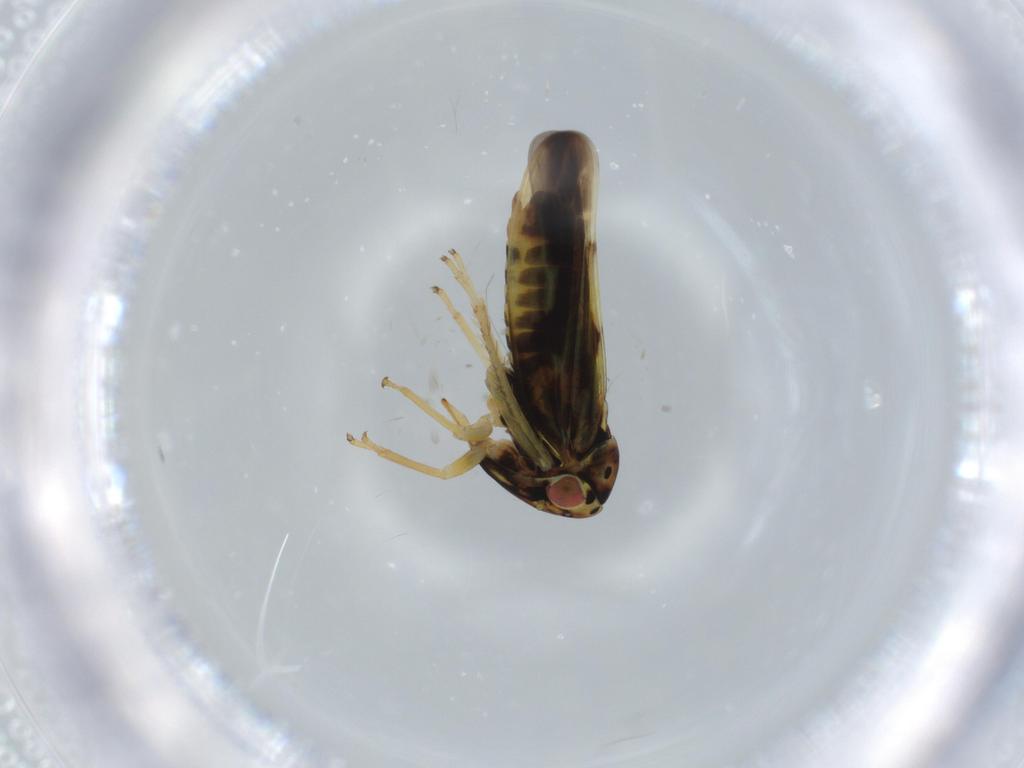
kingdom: Animalia
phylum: Arthropoda
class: Insecta
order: Hemiptera
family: Cicadellidae
